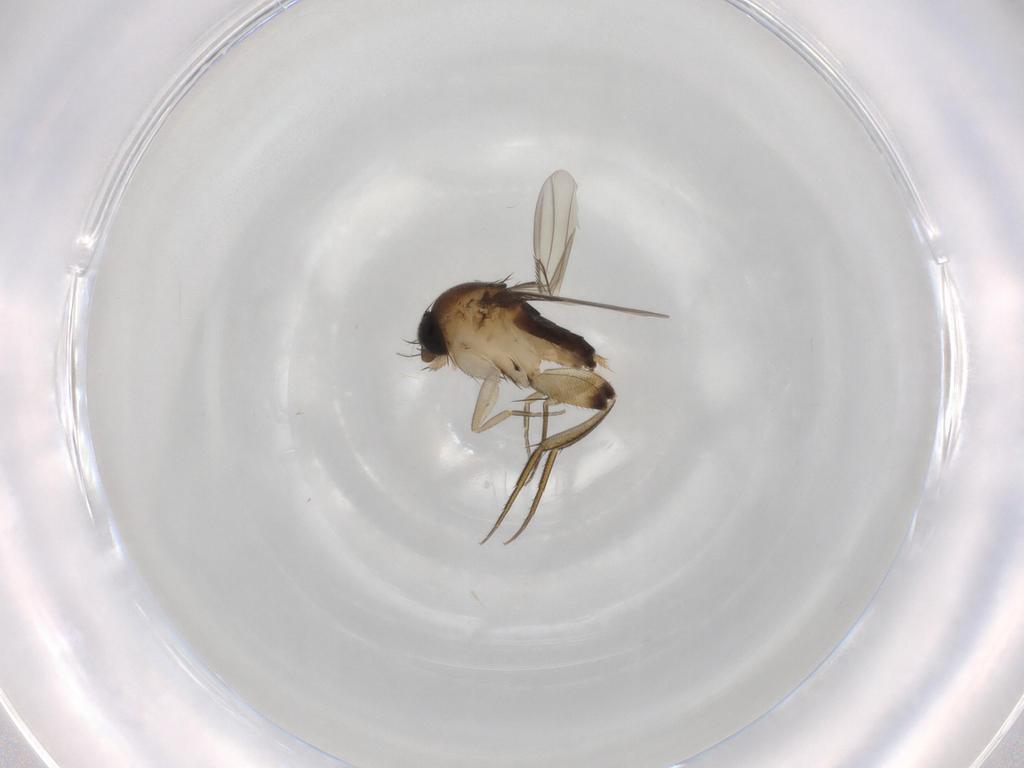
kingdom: Animalia
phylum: Arthropoda
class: Insecta
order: Diptera
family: Phoridae
